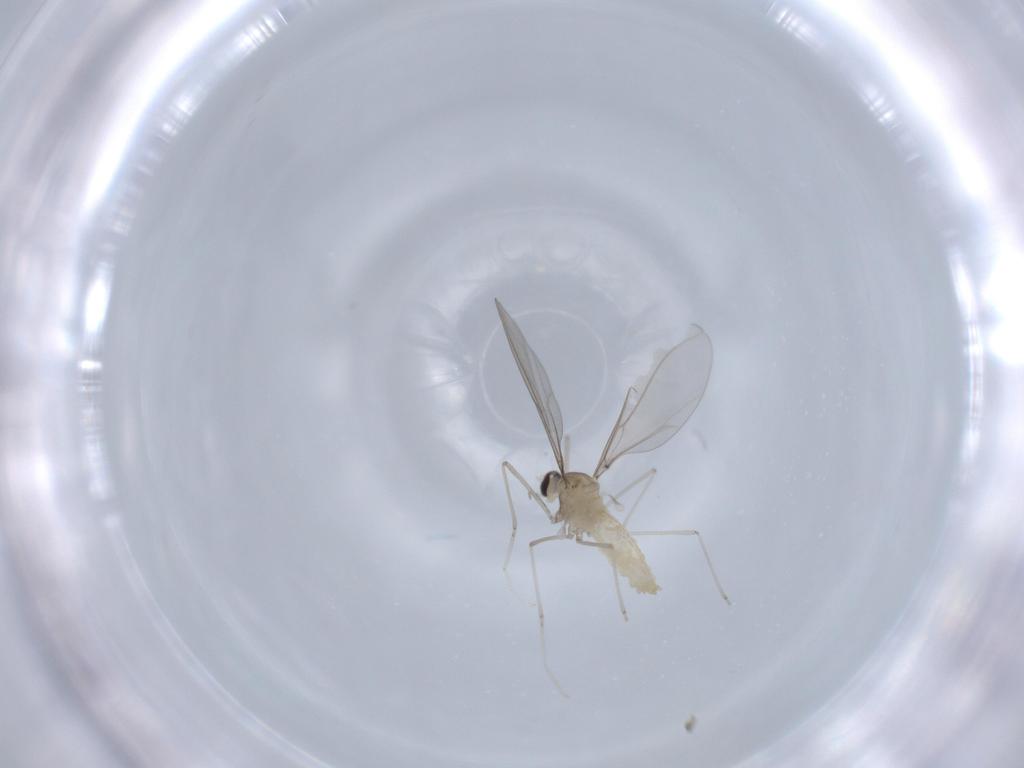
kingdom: Animalia
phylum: Arthropoda
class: Insecta
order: Diptera
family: Cecidomyiidae
